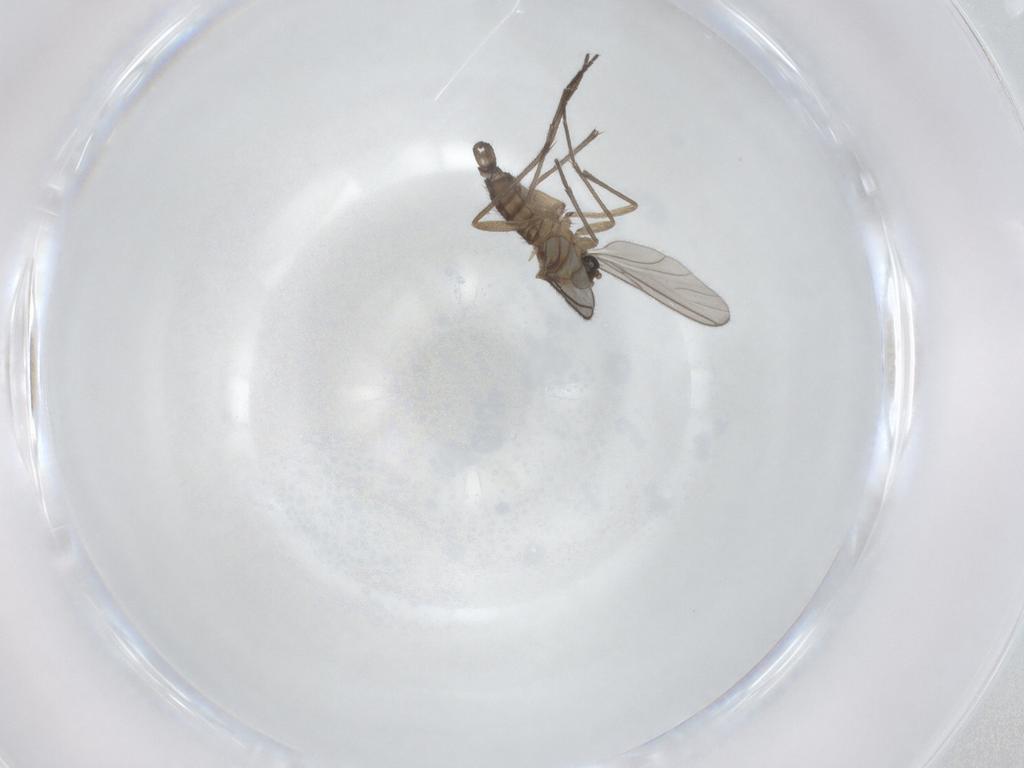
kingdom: Animalia
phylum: Arthropoda
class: Insecta
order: Diptera
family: Sciaridae
